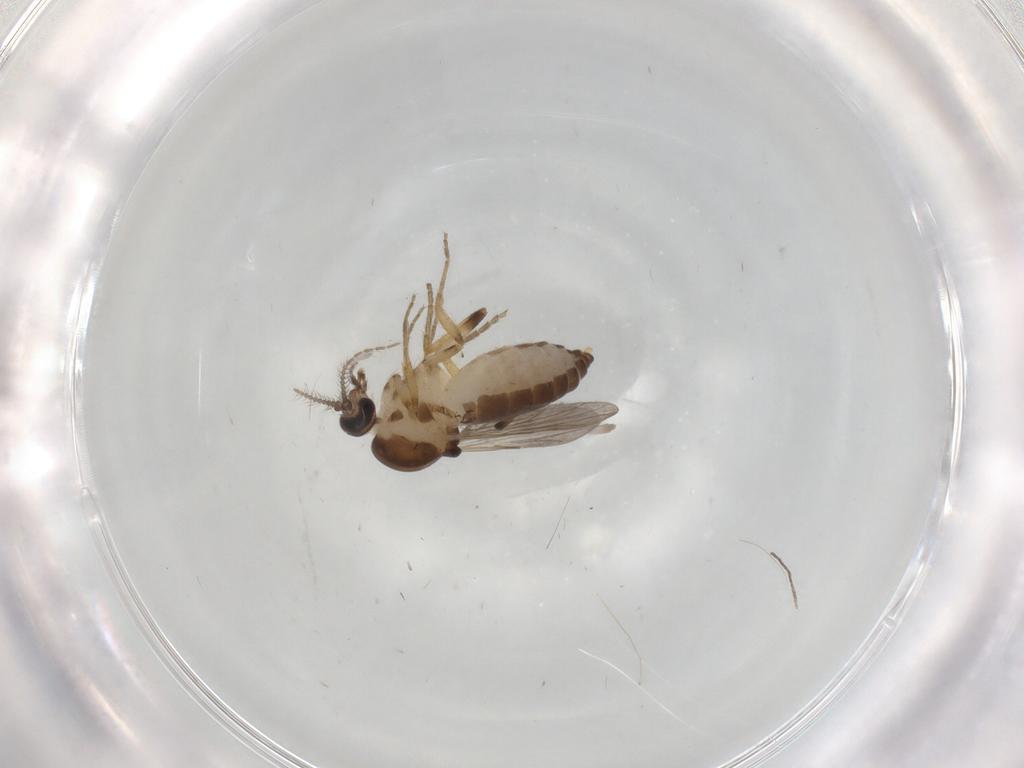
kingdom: Animalia
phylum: Arthropoda
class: Insecta
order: Diptera
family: Ceratopogonidae
